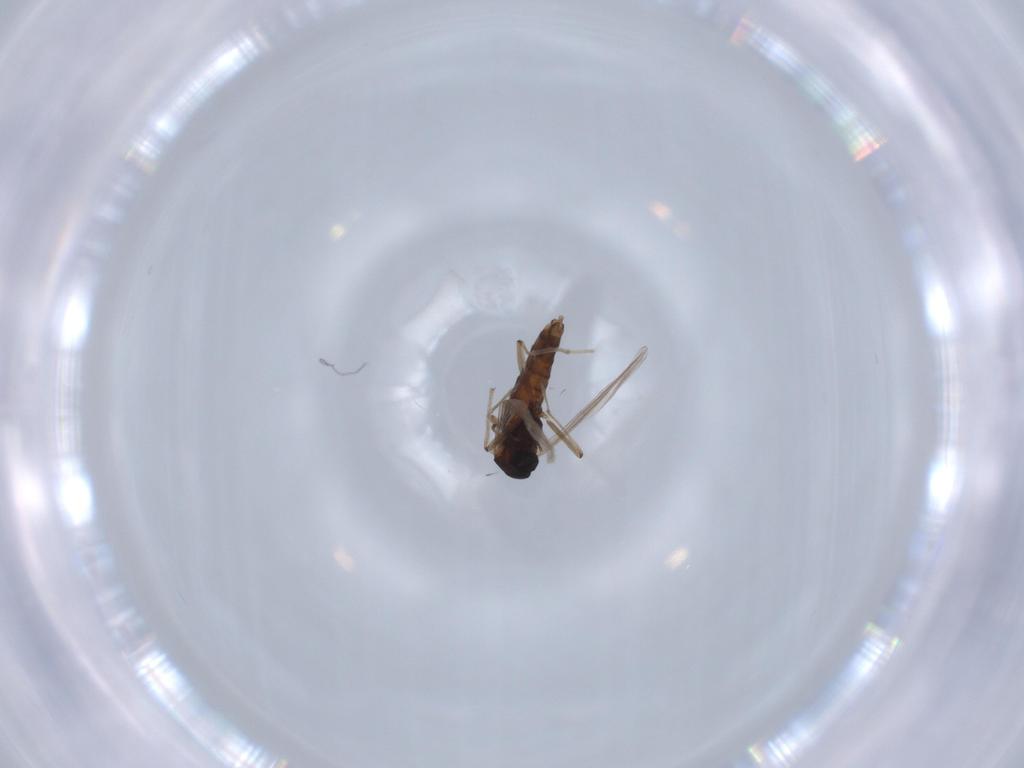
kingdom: Animalia
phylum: Arthropoda
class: Insecta
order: Diptera
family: Chironomidae
